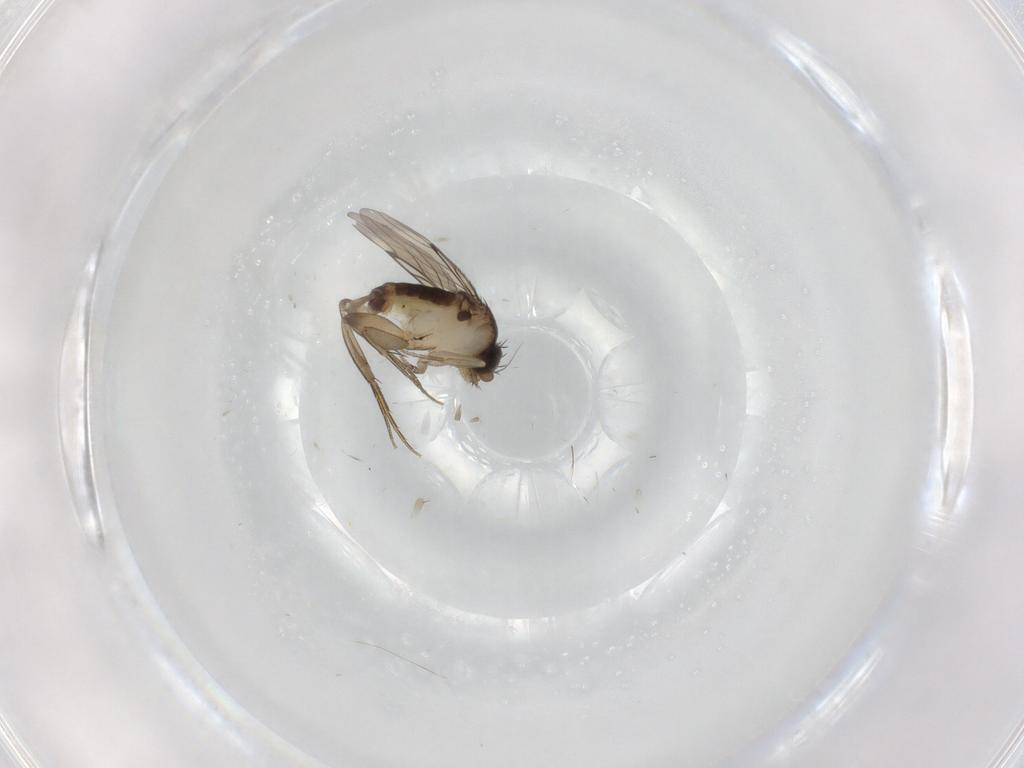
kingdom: Animalia
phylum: Arthropoda
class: Insecta
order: Diptera
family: Phoridae
